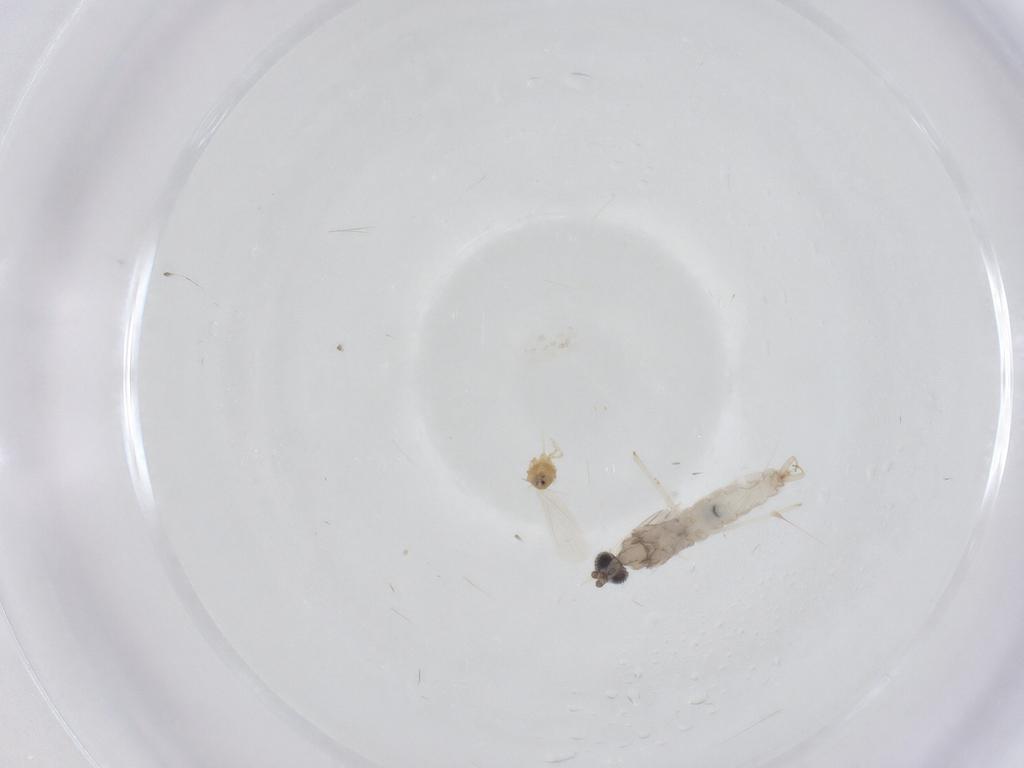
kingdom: Animalia
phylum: Arthropoda
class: Insecta
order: Diptera
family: Cecidomyiidae
